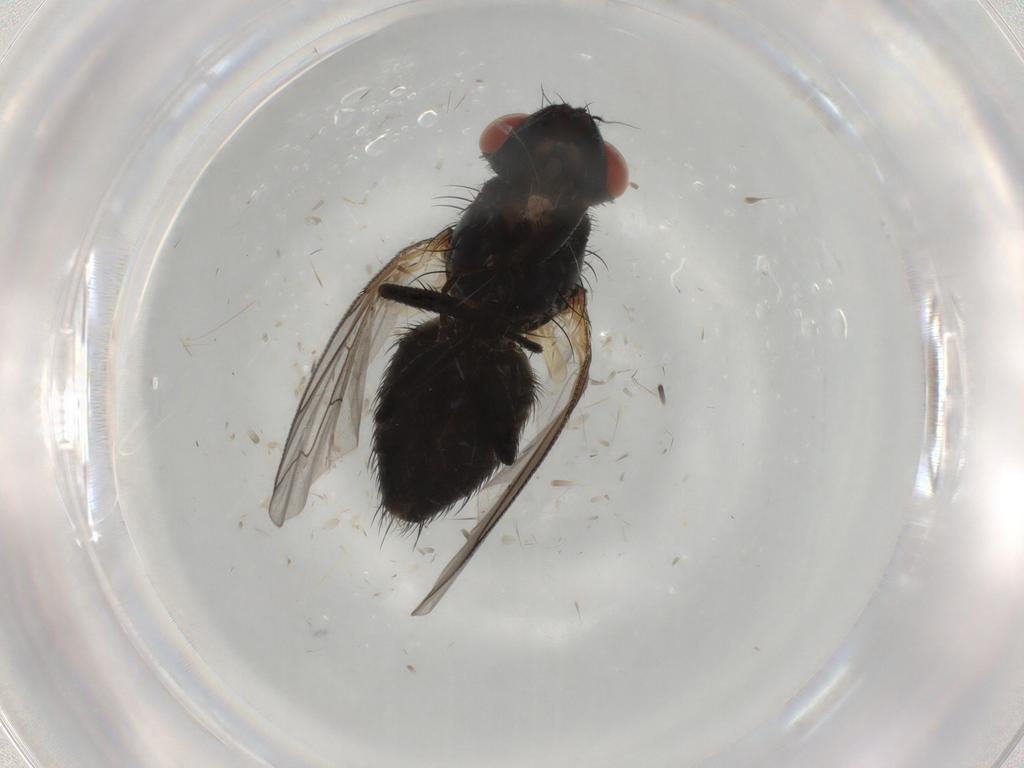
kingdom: Animalia
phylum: Arthropoda
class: Insecta
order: Diptera
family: Sarcophagidae
